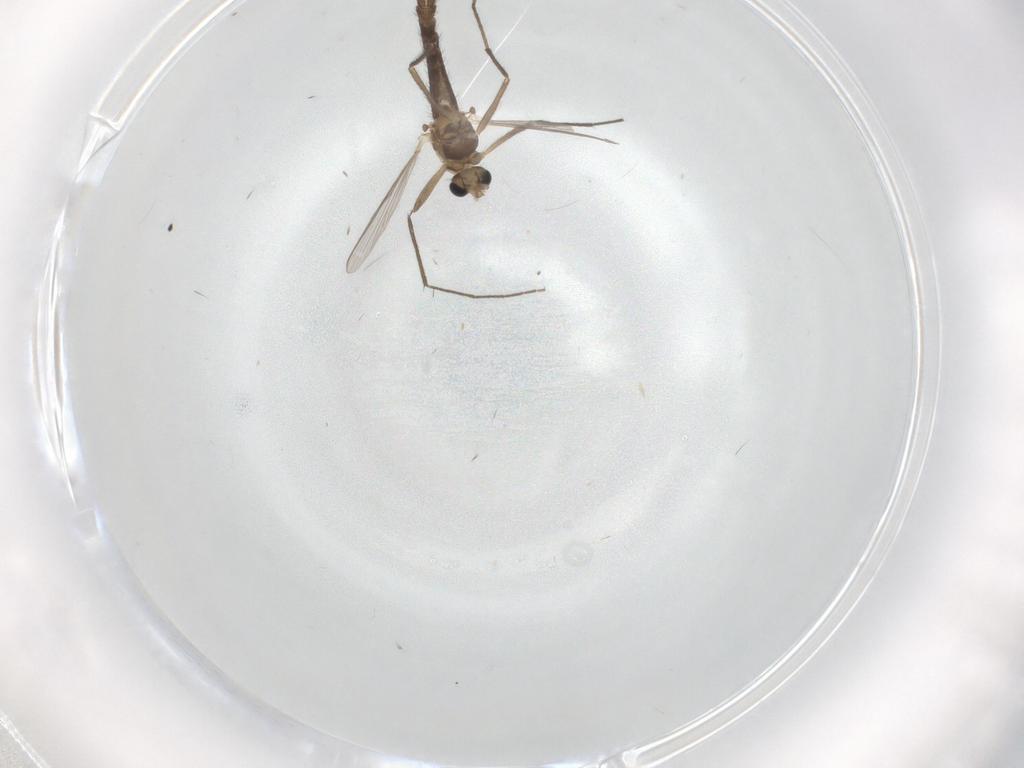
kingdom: Animalia
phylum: Arthropoda
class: Insecta
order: Diptera
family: Chironomidae
